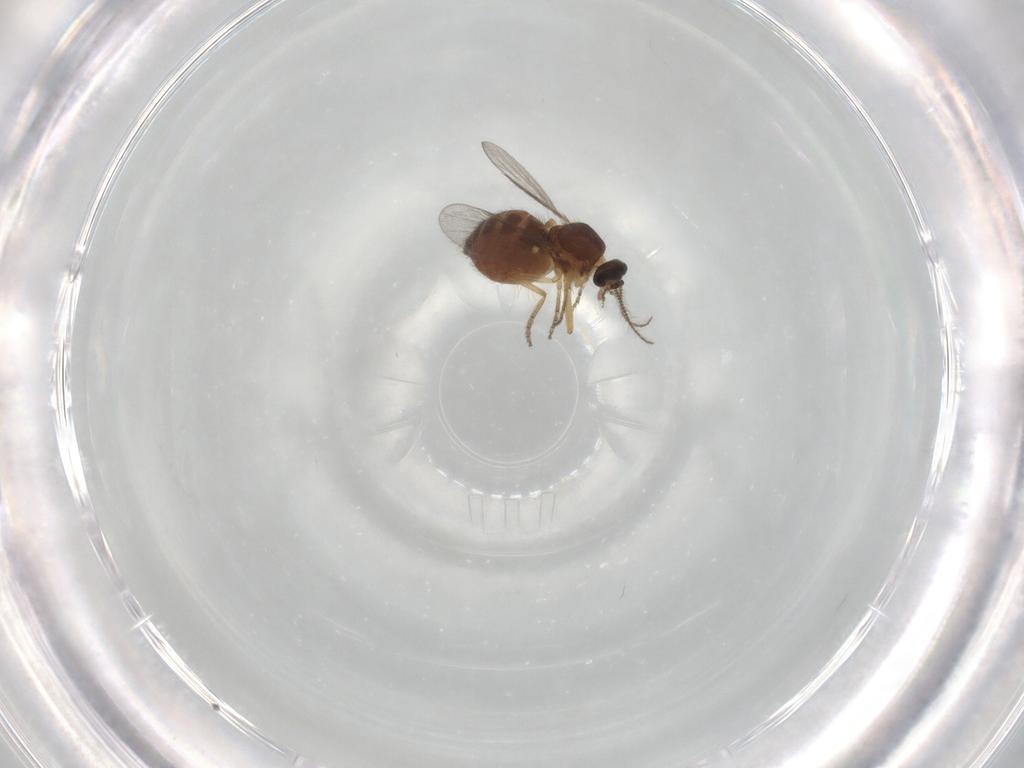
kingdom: Animalia
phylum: Arthropoda
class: Insecta
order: Diptera
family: Ceratopogonidae
